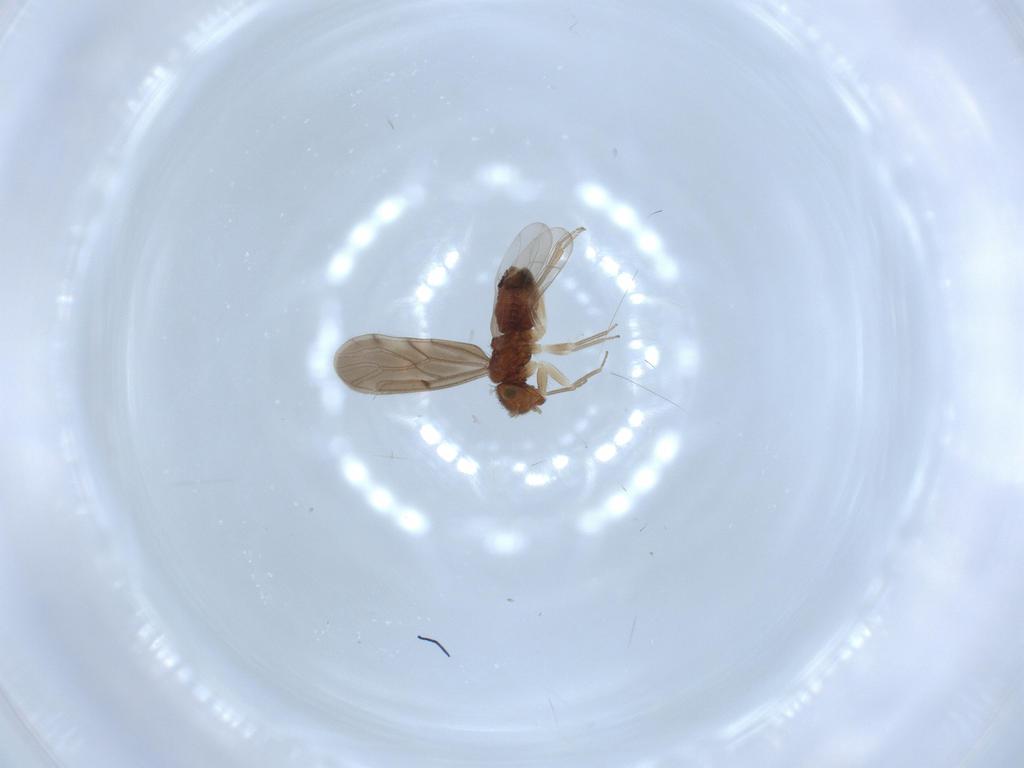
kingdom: Animalia
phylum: Arthropoda
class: Insecta
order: Psocodea
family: Ectopsocidae
